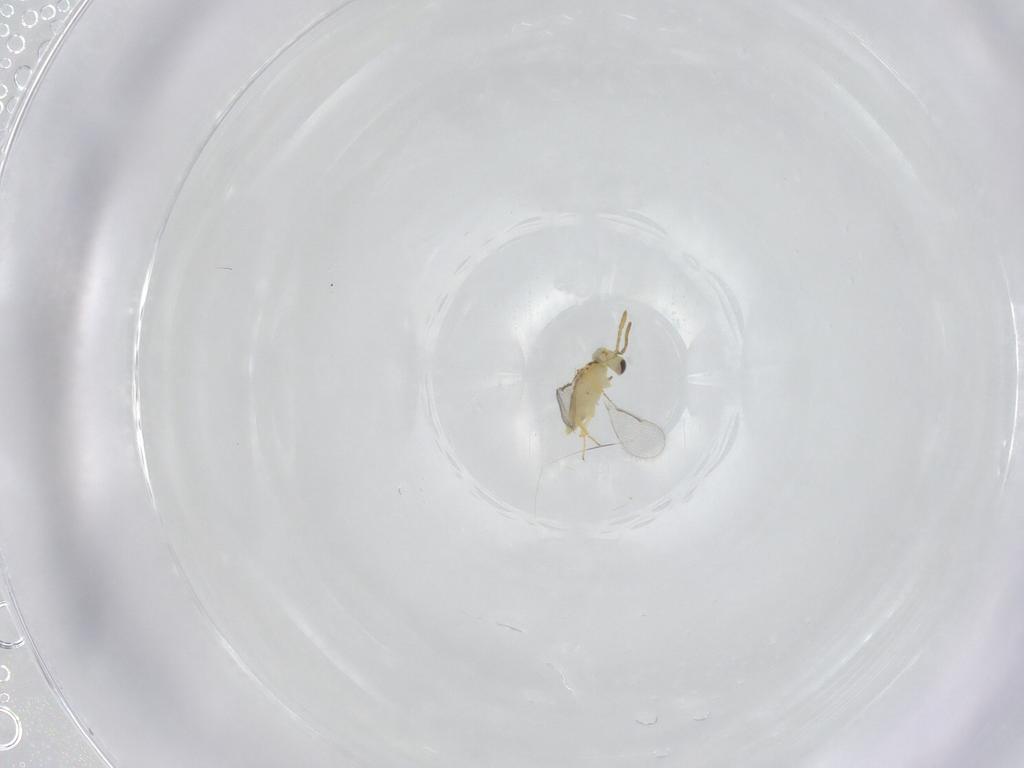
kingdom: Animalia
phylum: Arthropoda
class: Insecta
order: Hymenoptera
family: Aphelinidae
